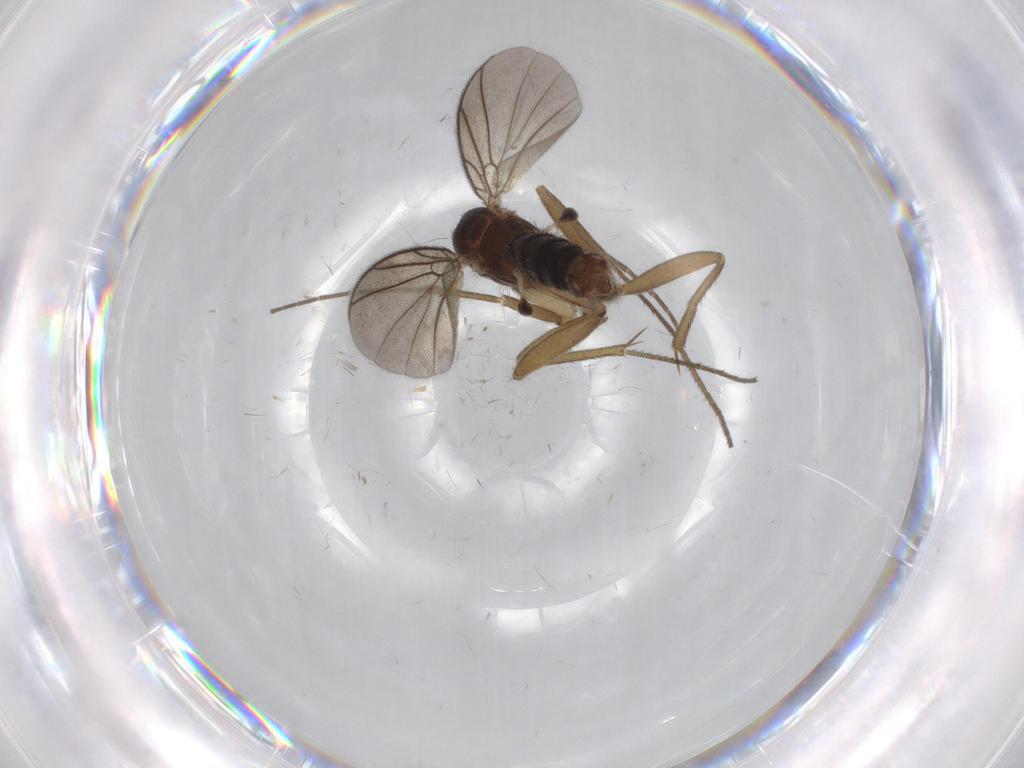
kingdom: Animalia
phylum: Arthropoda
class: Insecta
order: Diptera
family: Mycetophilidae
